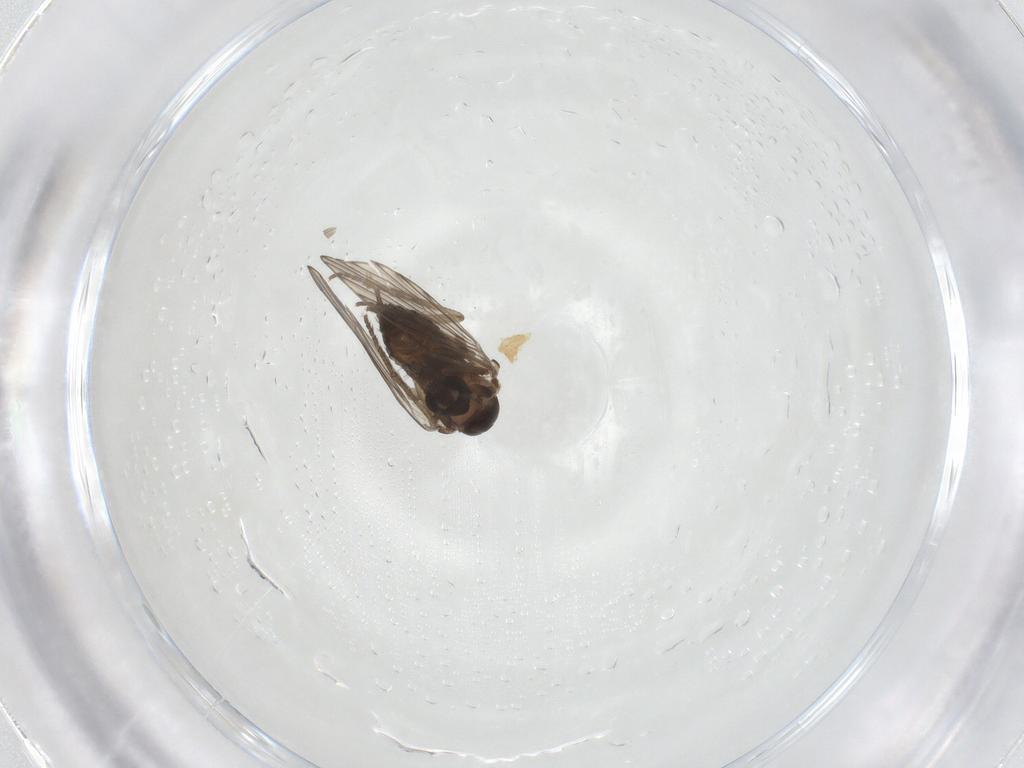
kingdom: Animalia
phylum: Arthropoda
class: Insecta
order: Diptera
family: Psychodidae
